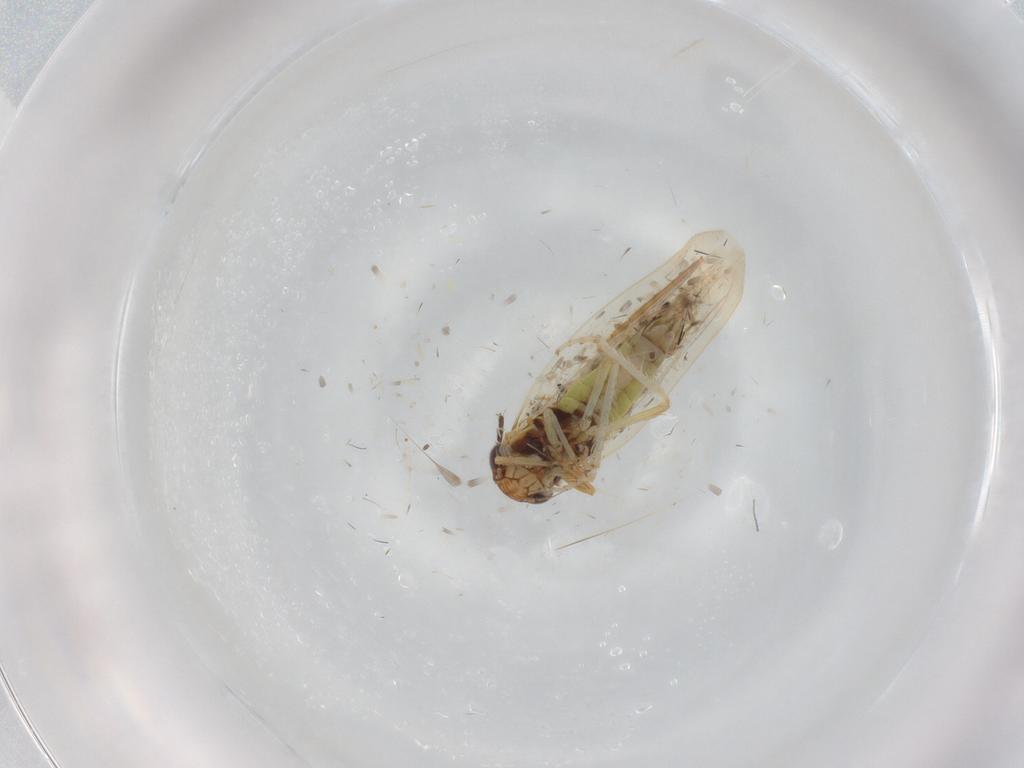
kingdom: Animalia
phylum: Arthropoda
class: Insecta
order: Hemiptera
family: Cicadellidae
